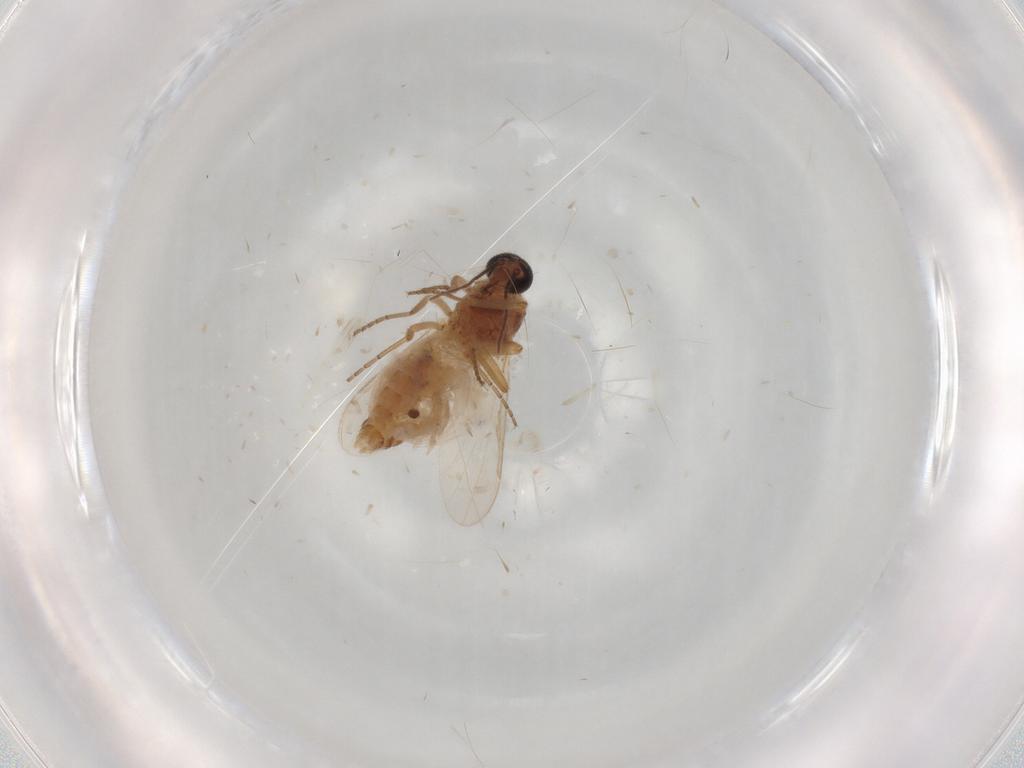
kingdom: Animalia
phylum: Arthropoda
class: Insecta
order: Diptera
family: Ceratopogonidae
